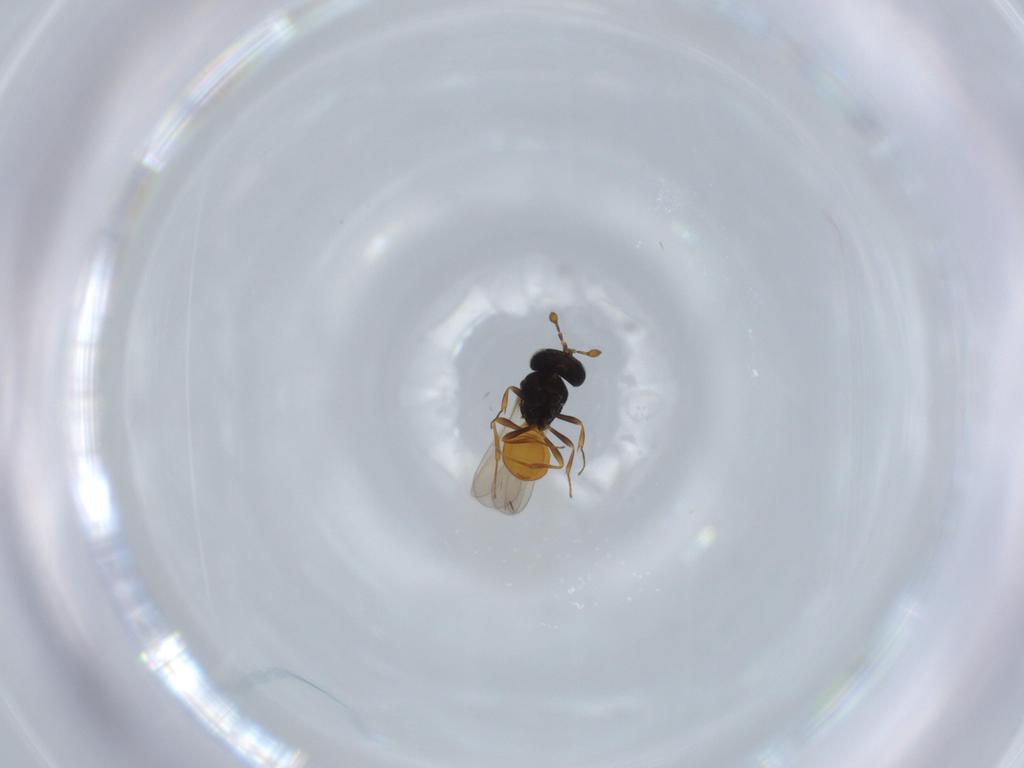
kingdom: Animalia
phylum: Arthropoda
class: Insecta
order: Hymenoptera
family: Scelionidae
